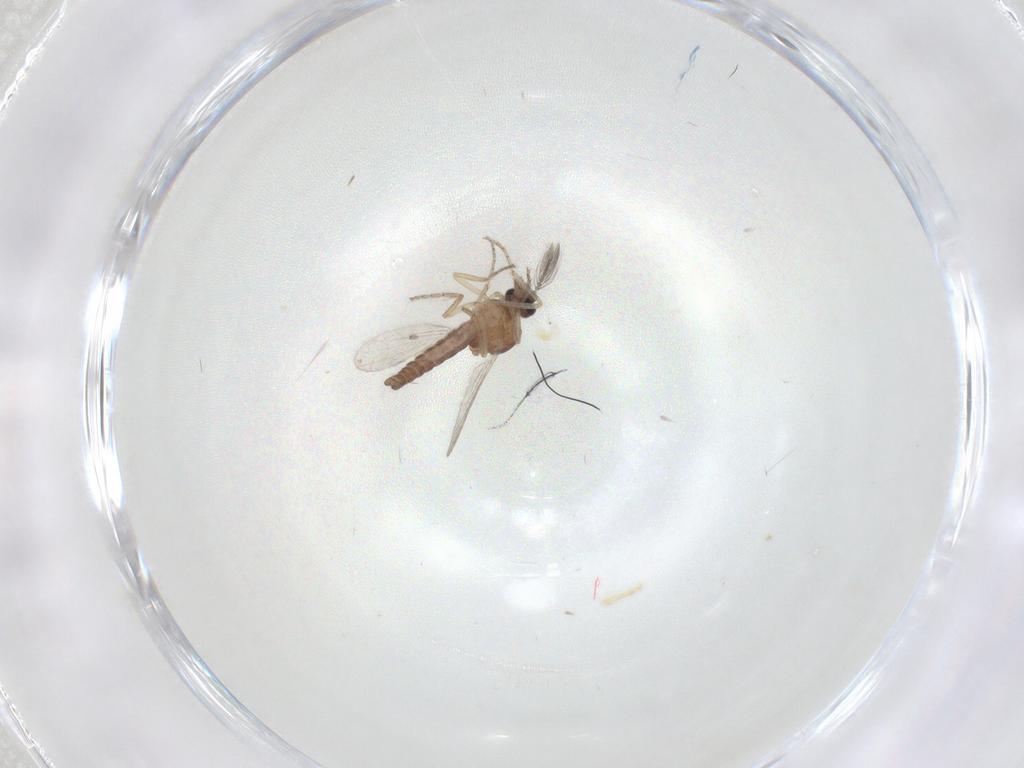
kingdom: Animalia
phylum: Arthropoda
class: Insecta
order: Diptera
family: Ceratopogonidae
